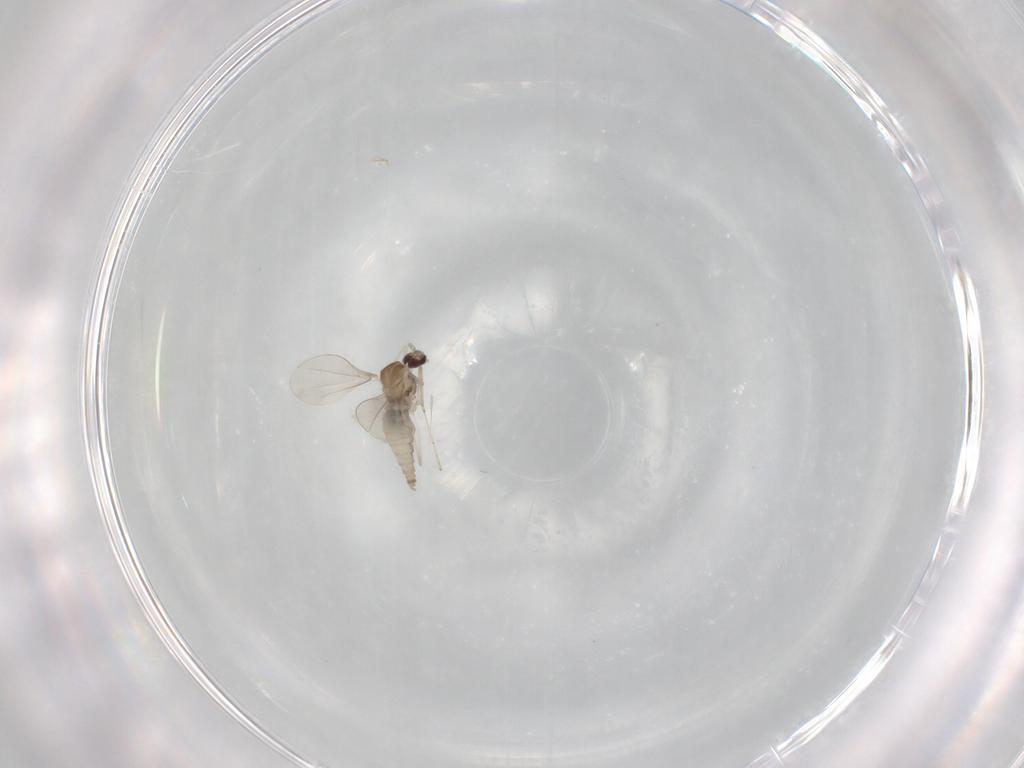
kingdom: Animalia
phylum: Arthropoda
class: Insecta
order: Diptera
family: Cecidomyiidae
